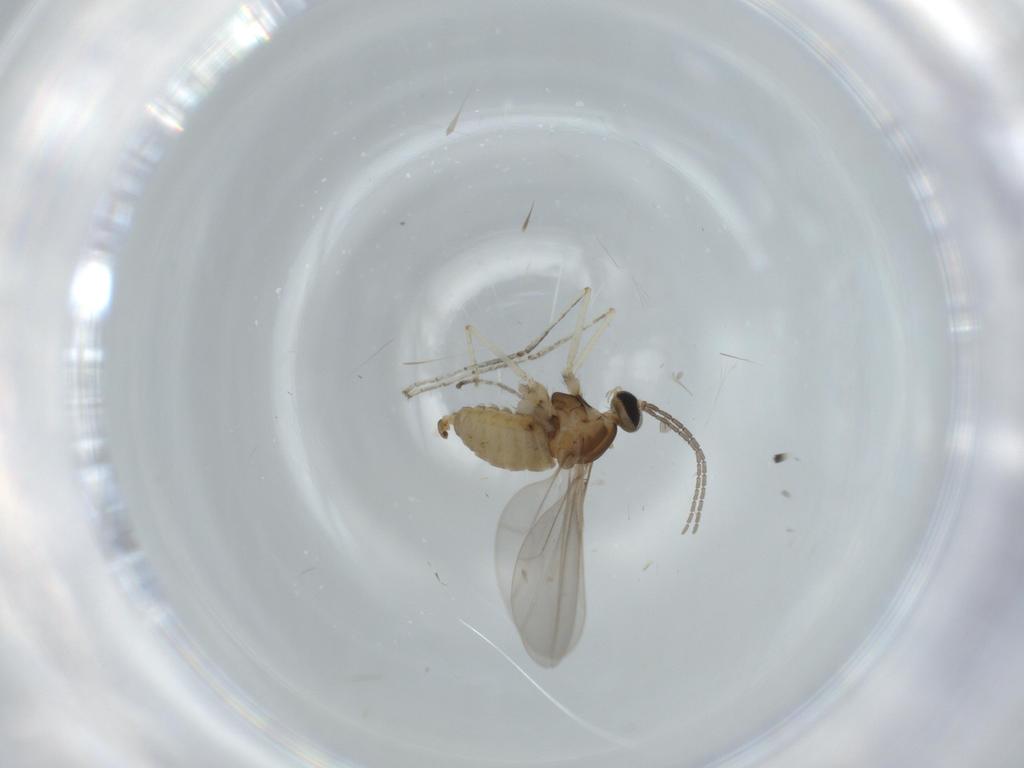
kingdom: Animalia
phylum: Arthropoda
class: Insecta
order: Diptera
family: Cecidomyiidae
